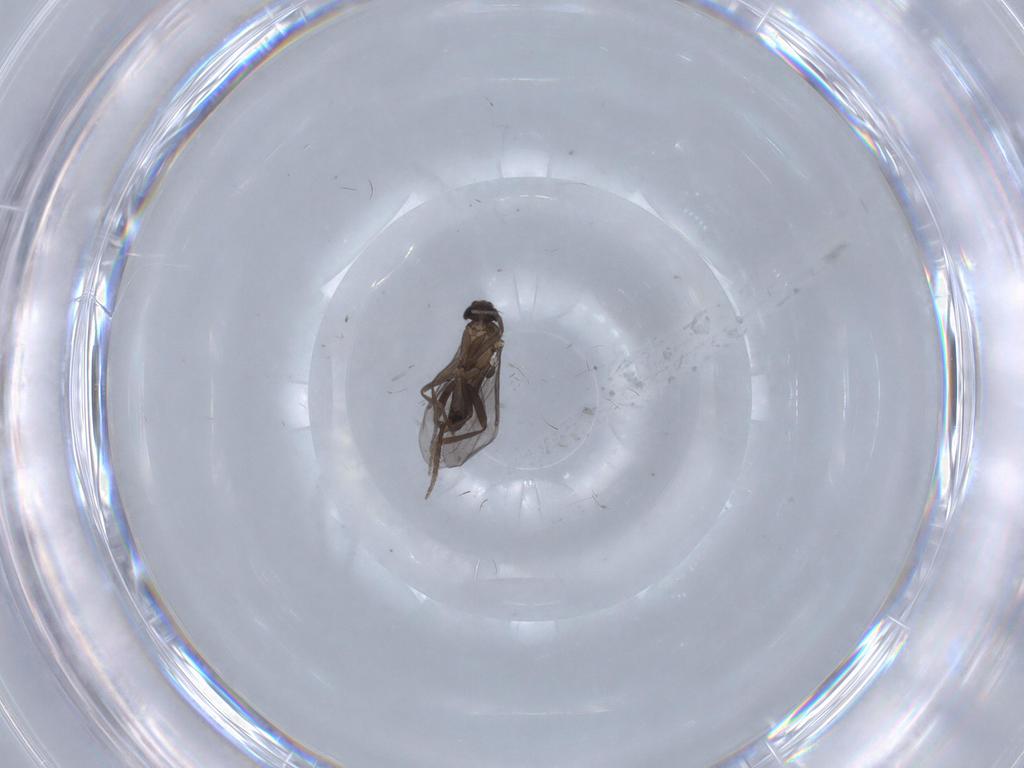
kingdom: Animalia
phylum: Arthropoda
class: Insecta
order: Diptera
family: Phoridae
